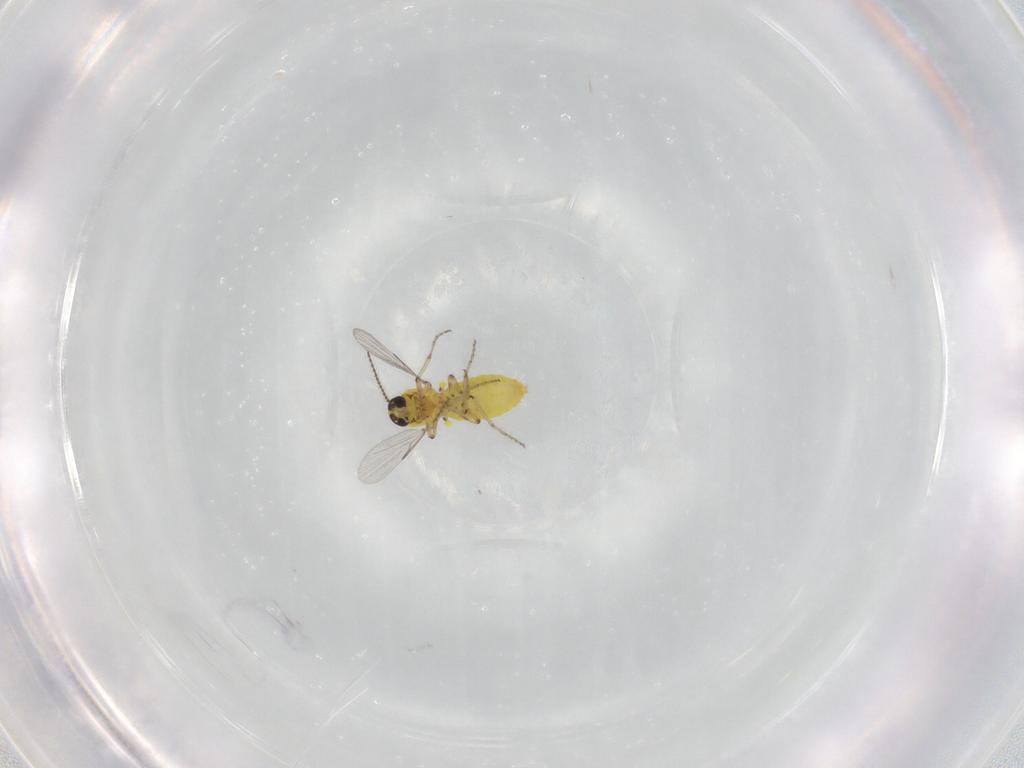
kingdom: Animalia
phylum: Arthropoda
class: Insecta
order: Diptera
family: Ceratopogonidae
